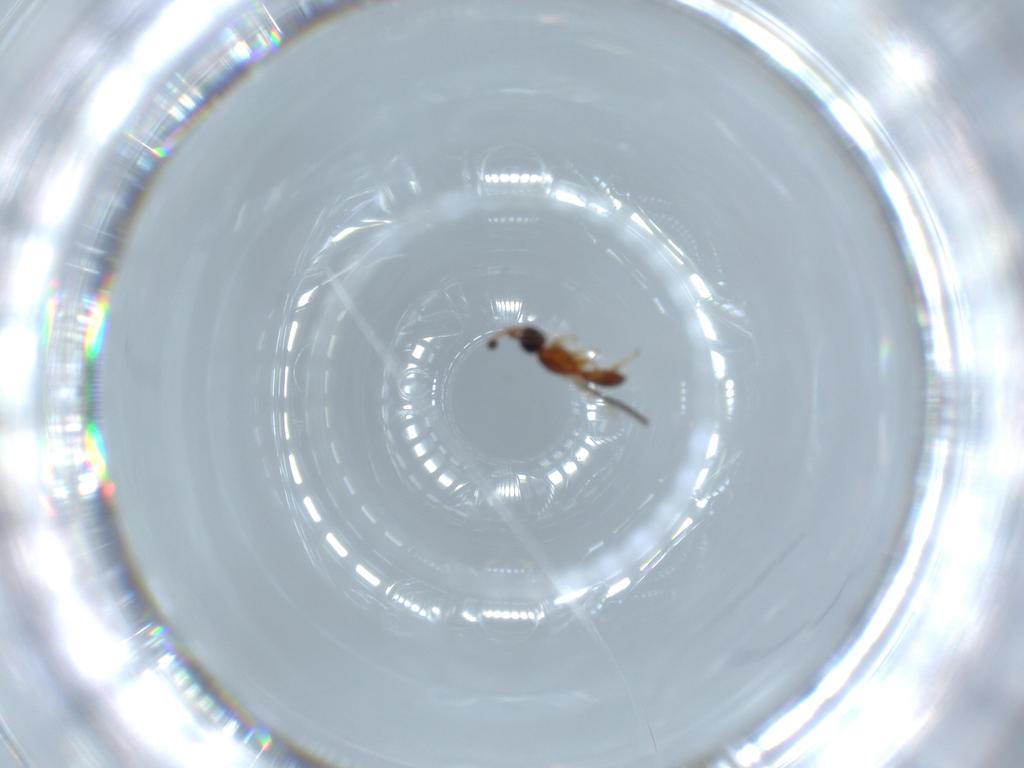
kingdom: Animalia
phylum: Arthropoda
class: Insecta
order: Hymenoptera
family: Diapriidae
